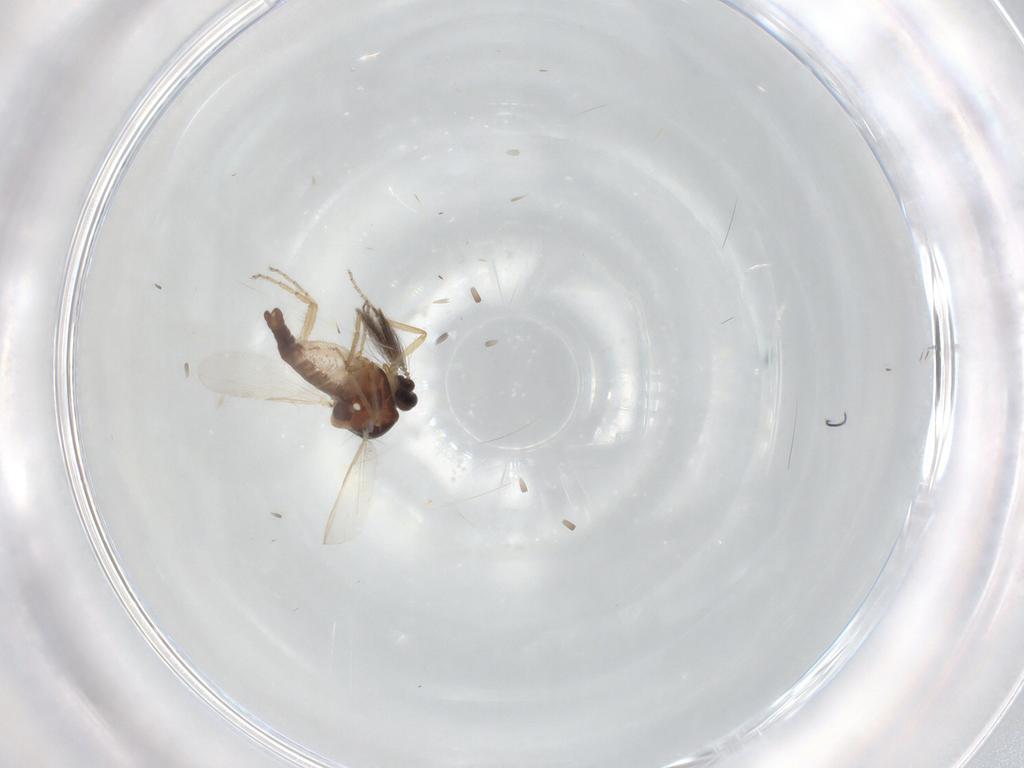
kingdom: Animalia
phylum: Arthropoda
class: Insecta
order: Diptera
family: Ceratopogonidae
